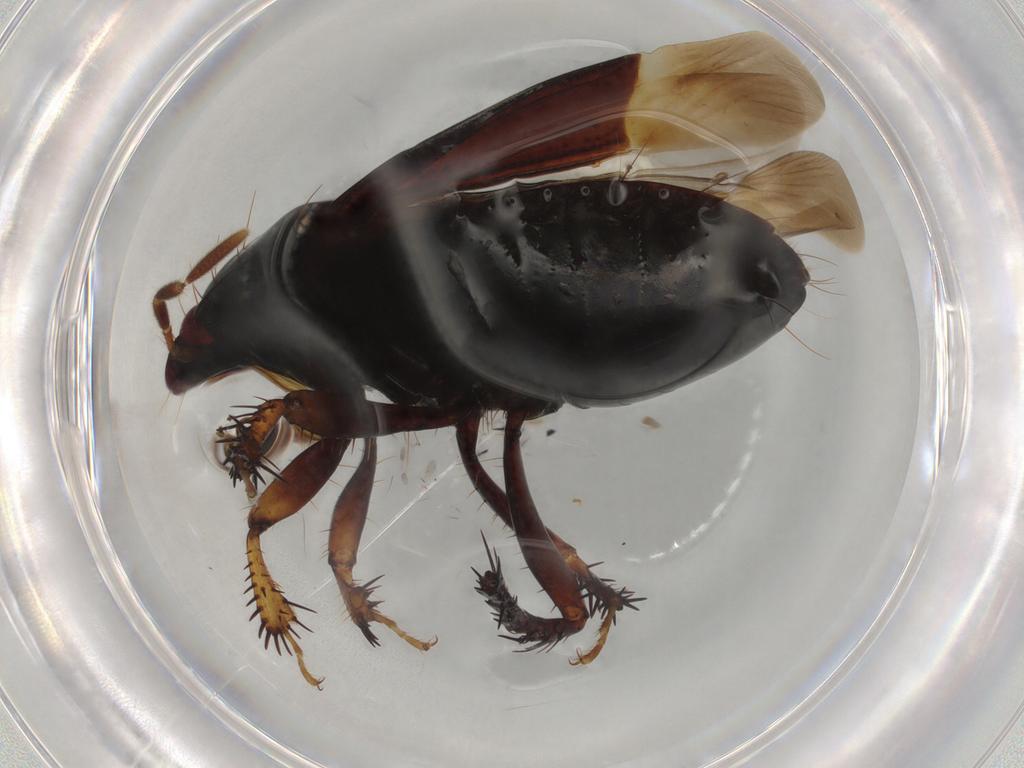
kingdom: Animalia
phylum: Arthropoda
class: Insecta
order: Hemiptera
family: Cydnidae
